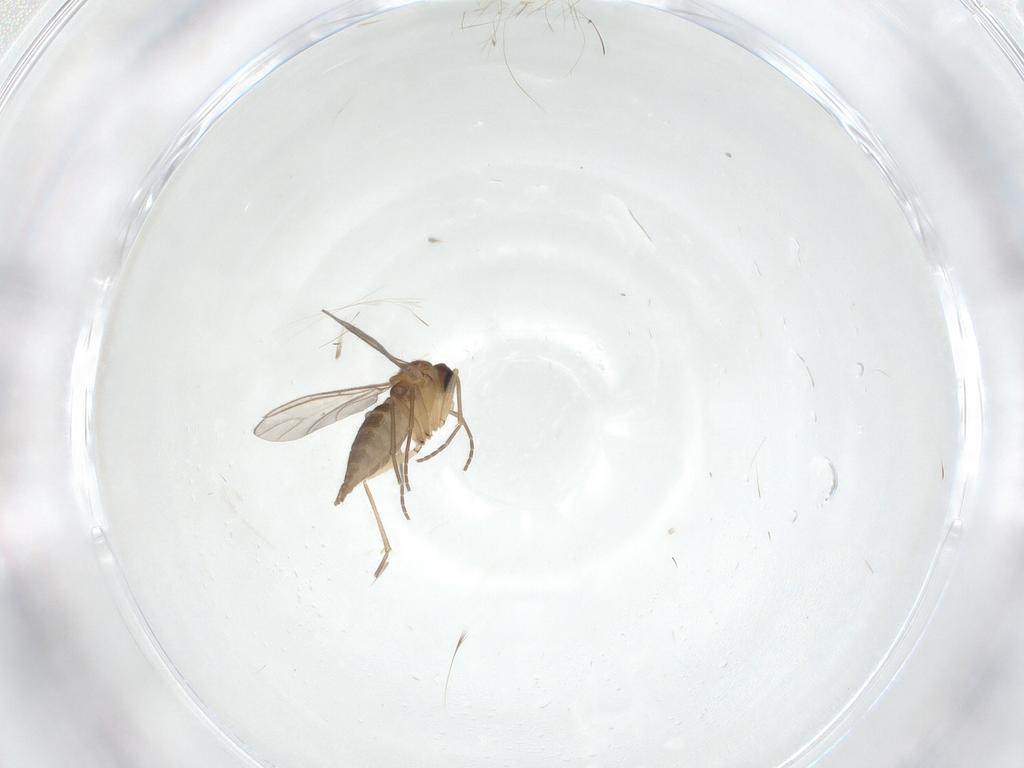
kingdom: Animalia
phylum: Arthropoda
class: Insecta
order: Diptera
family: Sciaridae
